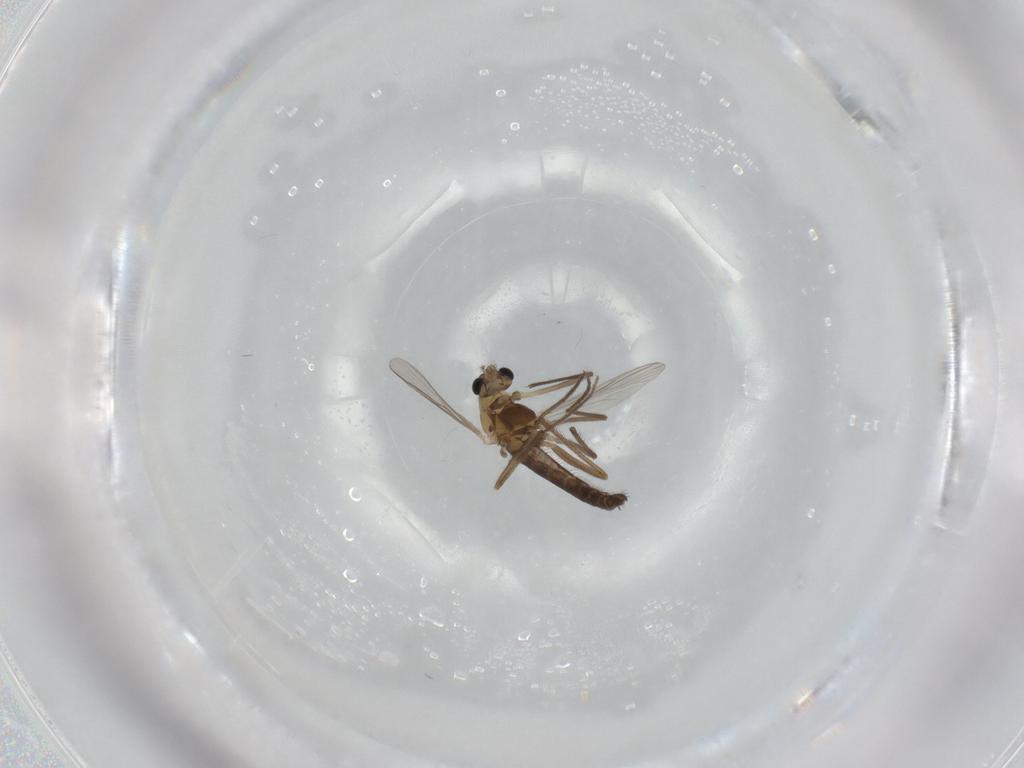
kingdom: Animalia
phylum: Arthropoda
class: Insecta
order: Diptera
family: Chironomidae
